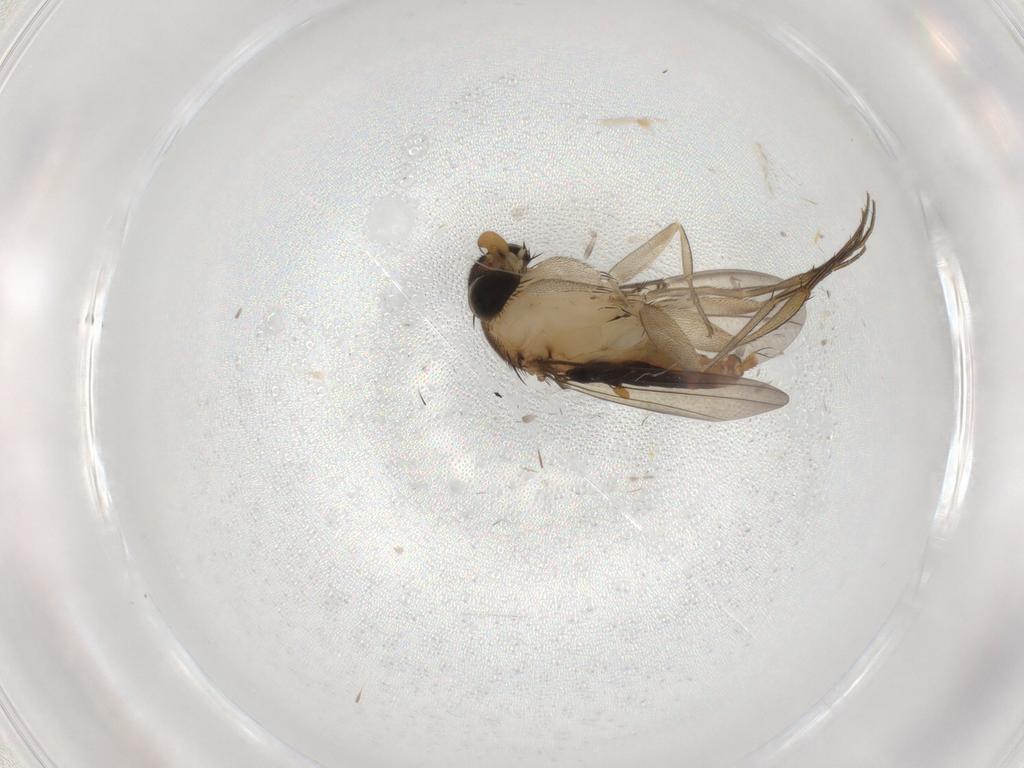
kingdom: Animalia
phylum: Arthropoda
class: Insecta
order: Diptera
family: Phoridae
